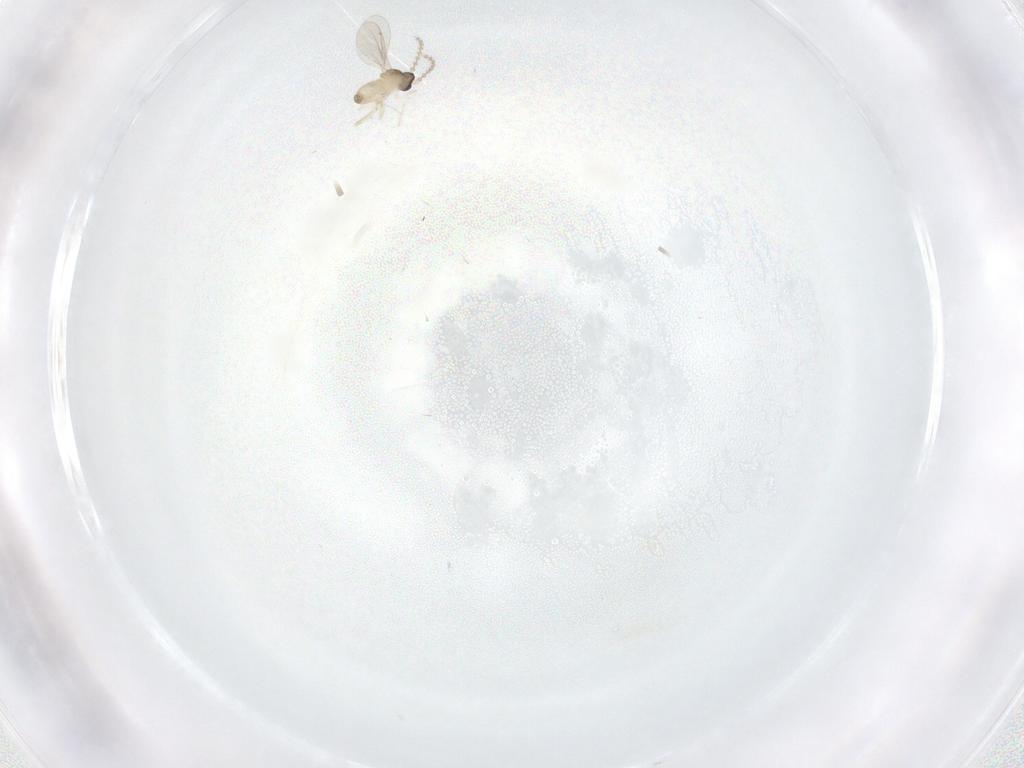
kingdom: Animalia
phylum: Arthropoda
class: Insecta
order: Diptera
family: Cecidomyiidae
